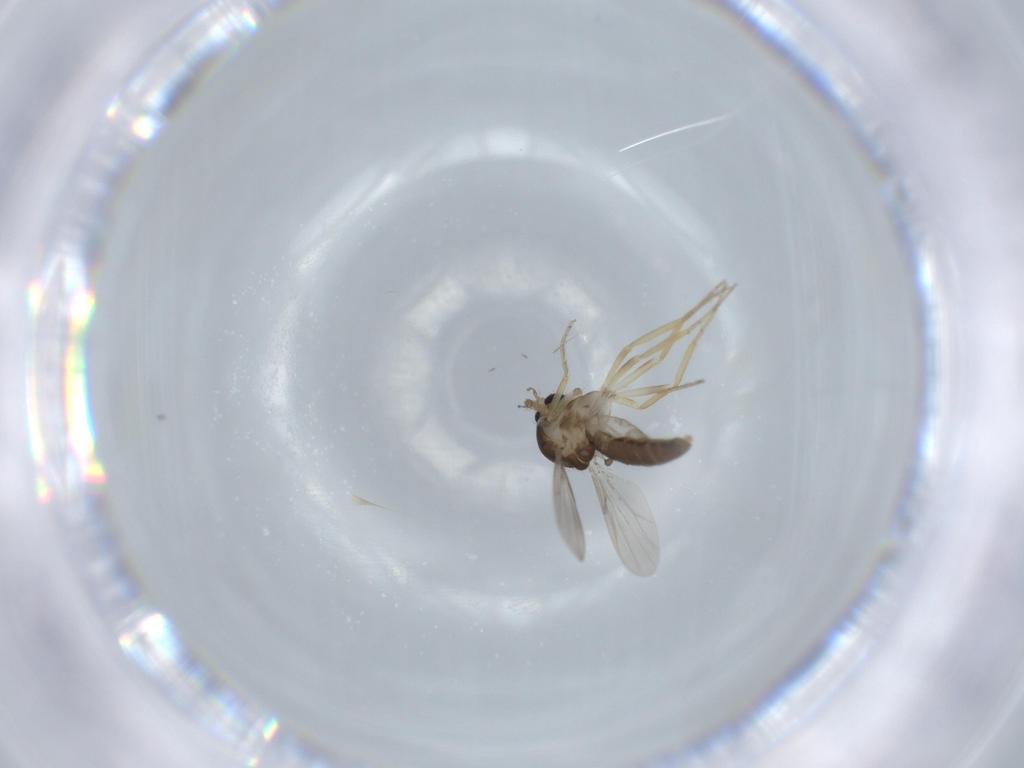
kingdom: Animalia
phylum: Arthropoda
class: Insecta
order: Diptera
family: Ceratopogonidae
